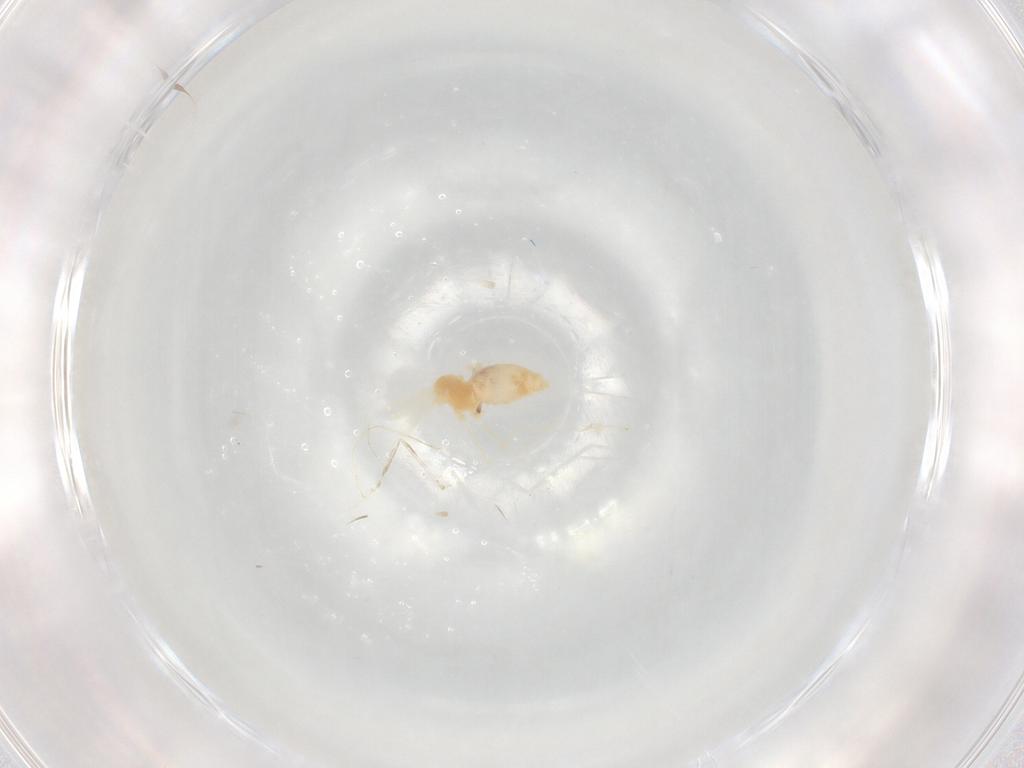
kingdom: Animalia
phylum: Arthropoda
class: Insecta
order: Diptera
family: Cecidomyiidae
